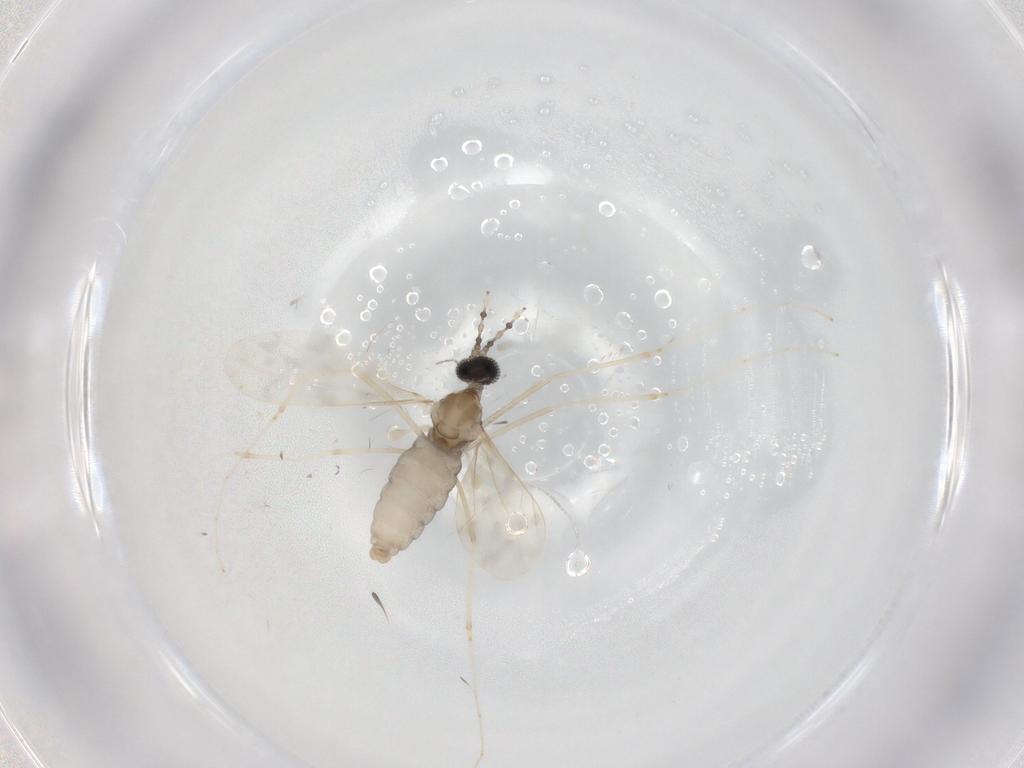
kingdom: Animalia
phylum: Arthropoda
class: Insecta
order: Diptera
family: Cecidomyiidae
